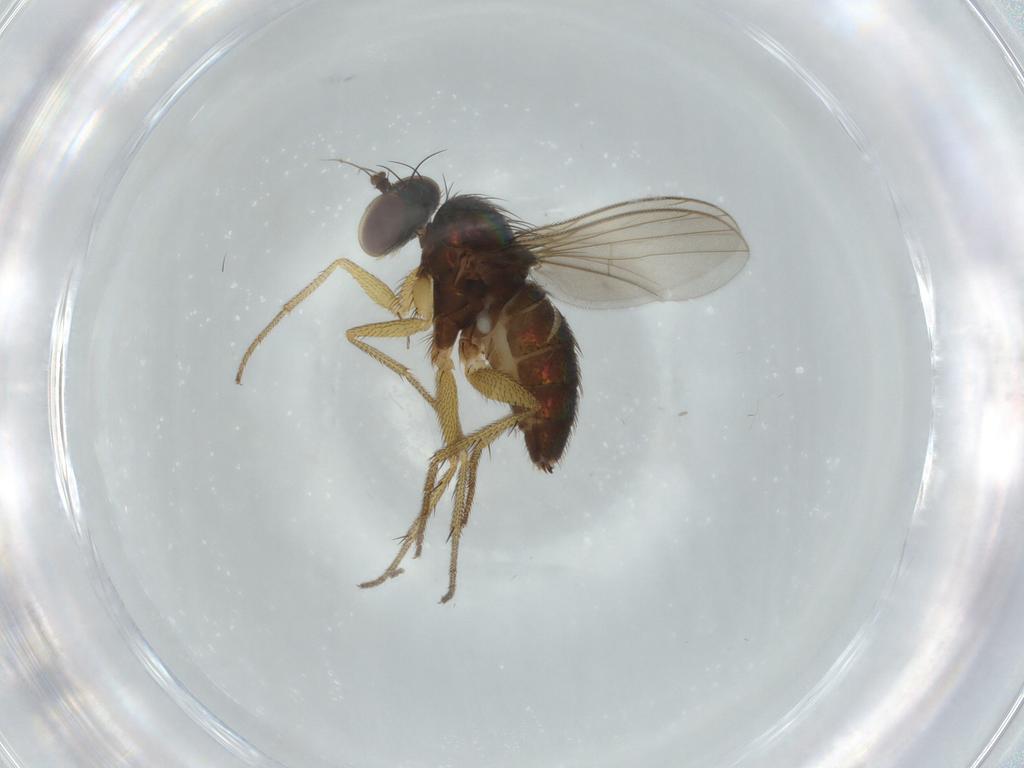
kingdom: Animalia
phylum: Arthropoda
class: Insecta
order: Diptera
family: Dolichopodidae
